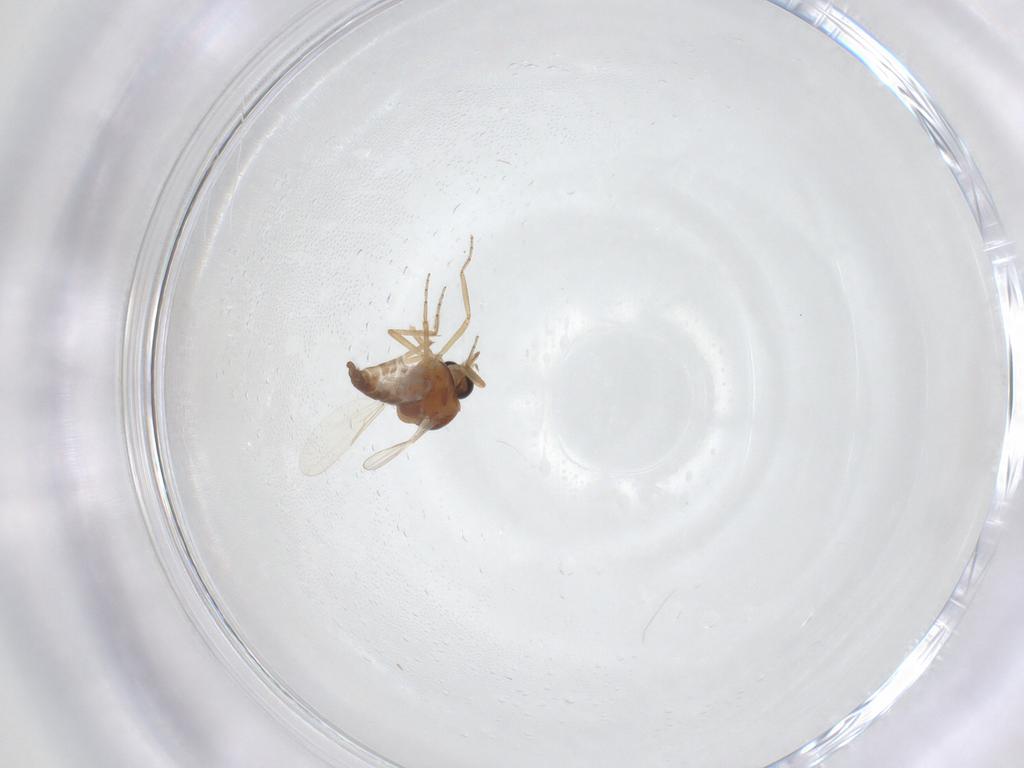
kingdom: Animalia
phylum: Arthropoda
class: Insecta
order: Diptera
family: Ceratopogonidae
